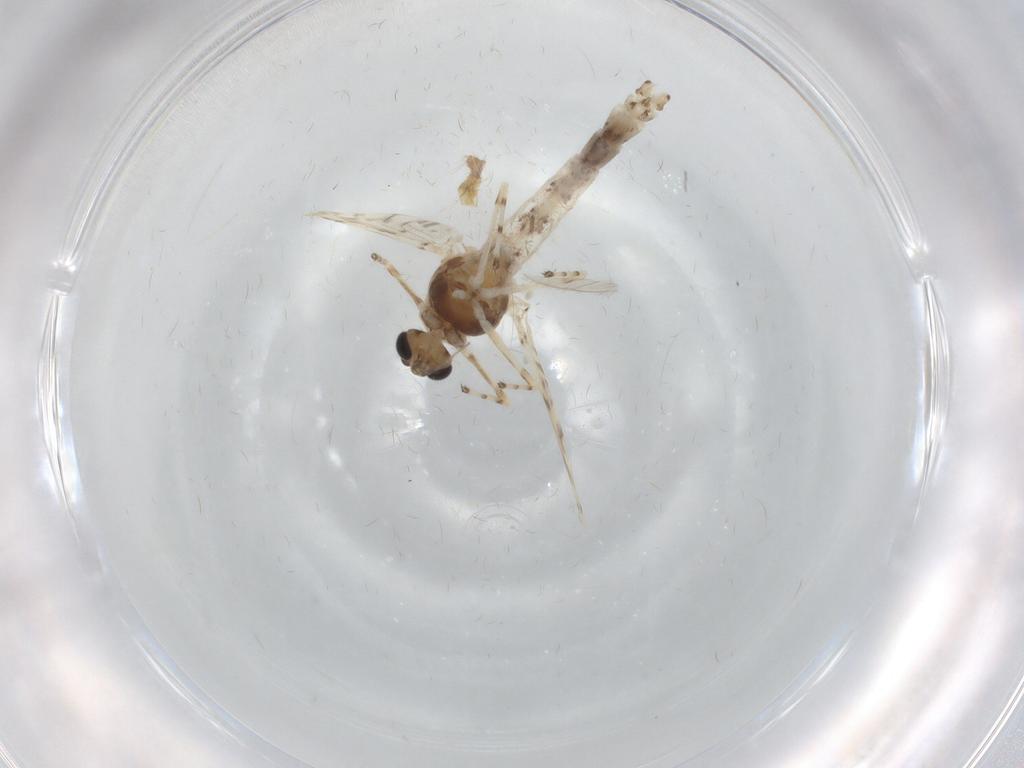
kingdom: Animalia
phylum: Arthropoda
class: Insecta
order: Diptera
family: Chironomidae
